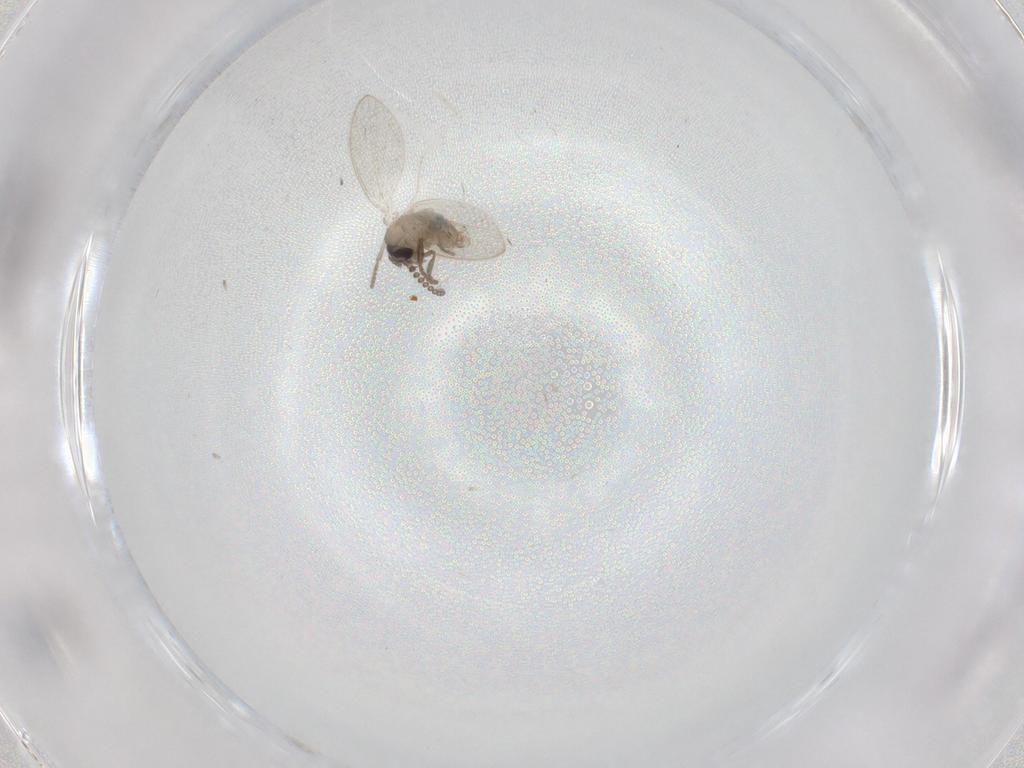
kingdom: Animalia
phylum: Arthropoda
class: Insecta
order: Diptera
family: Psychodidae
